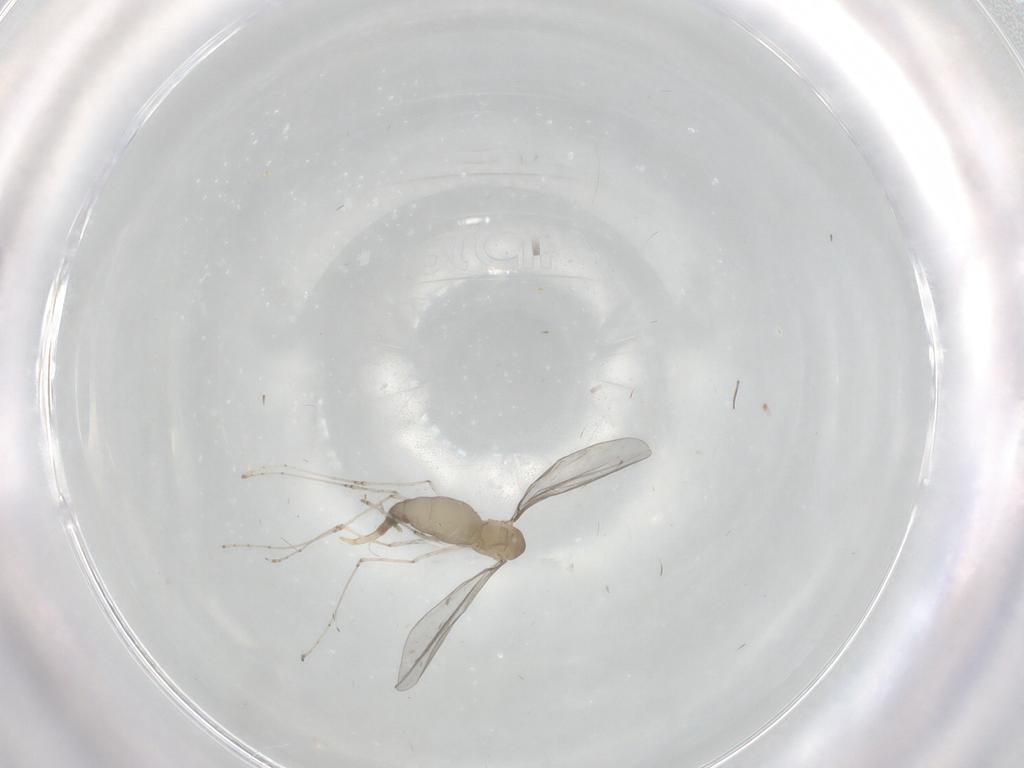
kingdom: Animalia
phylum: Arthropoda
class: Insecta
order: Diptera
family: Cecidomyiidae
